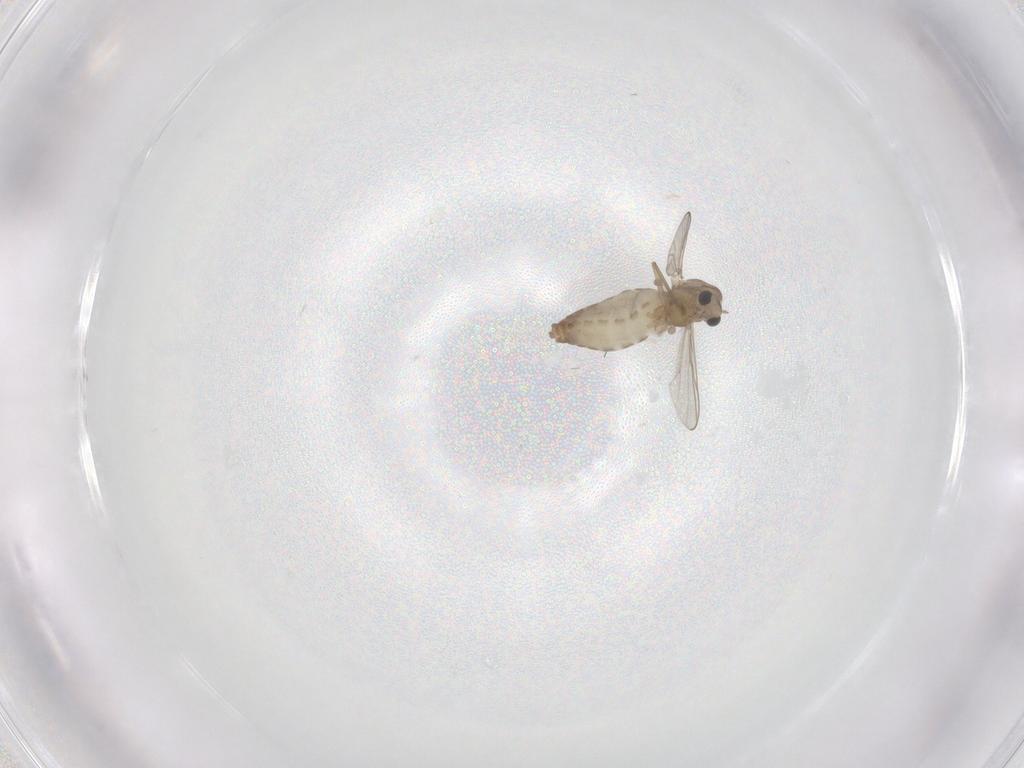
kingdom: Animalia
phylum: Arthropoda
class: Insecta
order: Diptera
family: Chironomidae
